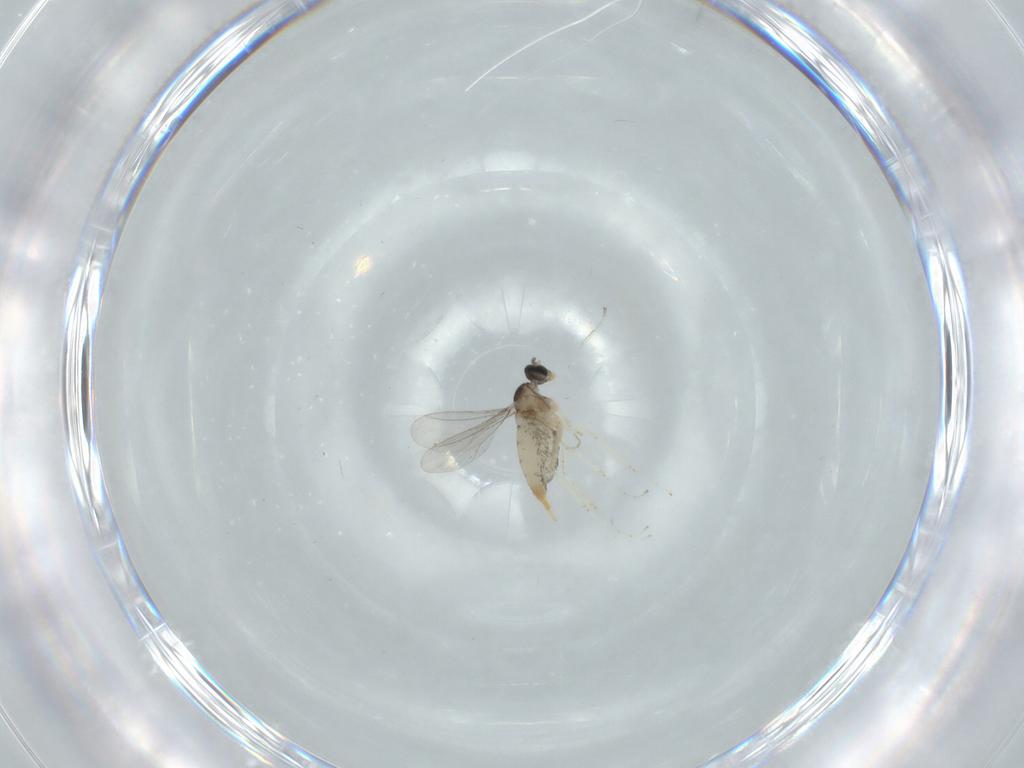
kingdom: Animalia
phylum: Arthropoda
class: Insecta
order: Diptera
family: Asilidae
